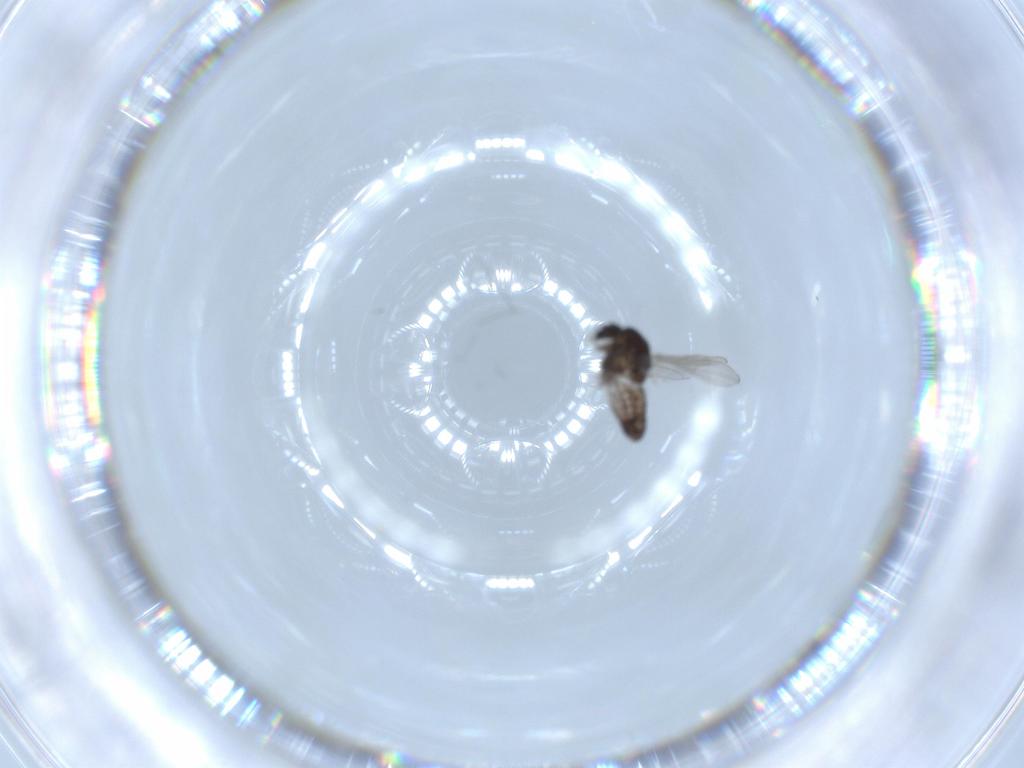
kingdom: Animalia
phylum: Arthropoda
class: Insecta
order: Diptera
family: Chironomidae
